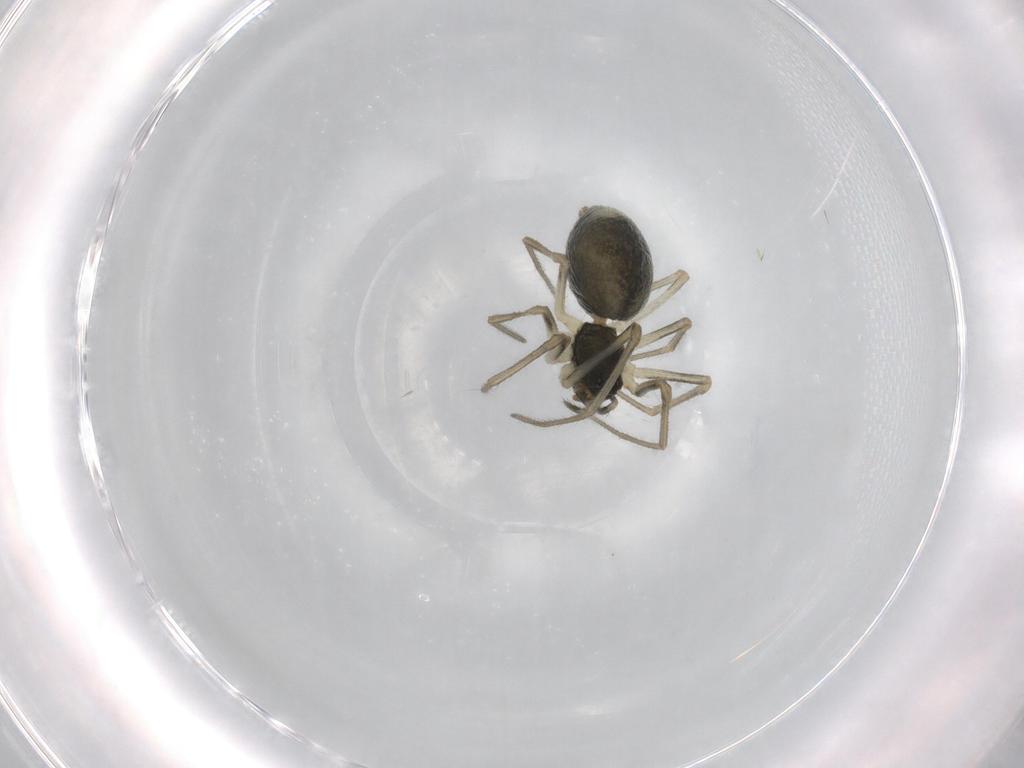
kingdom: Animalia
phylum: Arthropoda
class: Arachnida
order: Araneae
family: Linyphiidae
